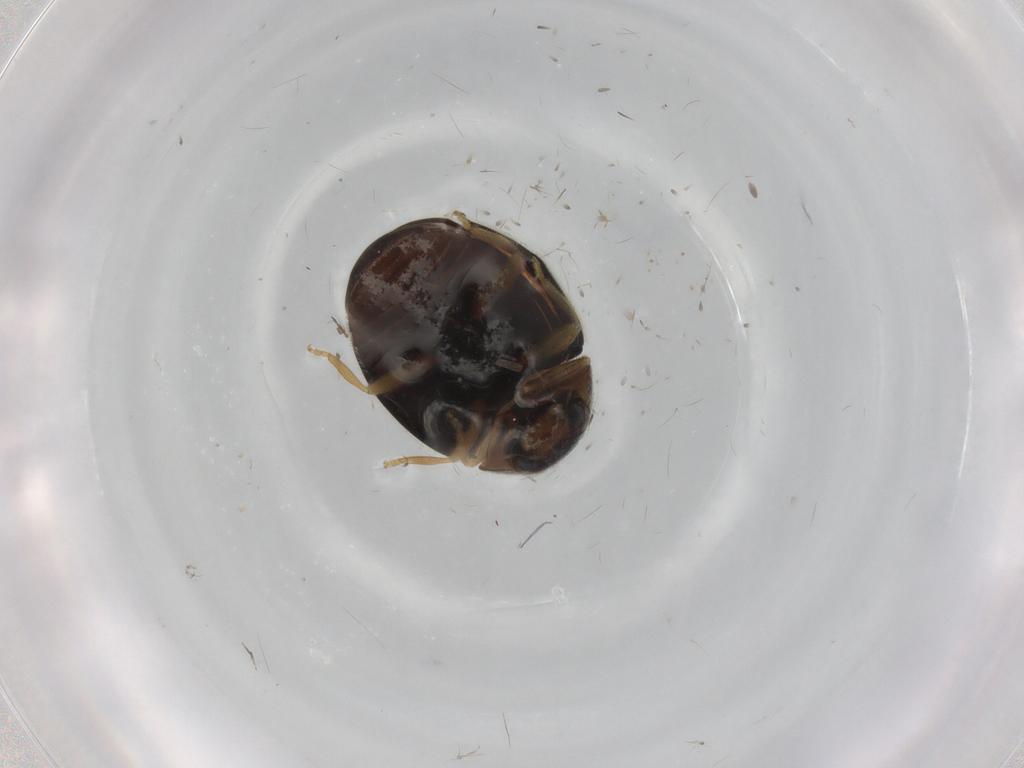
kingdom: Animalia
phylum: Arthropoda
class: Insecta
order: Coleoptera
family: Coccinellidae
